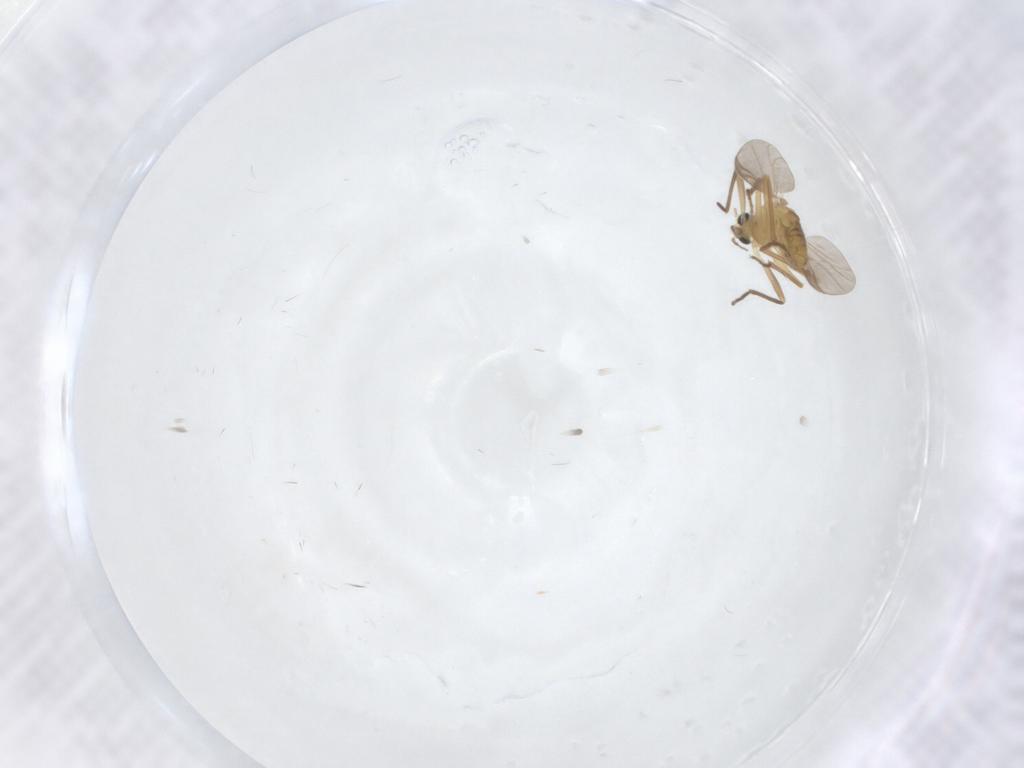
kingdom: Animalia
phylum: Arthropoda
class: Insecta
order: Diptera
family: Chironomidae
